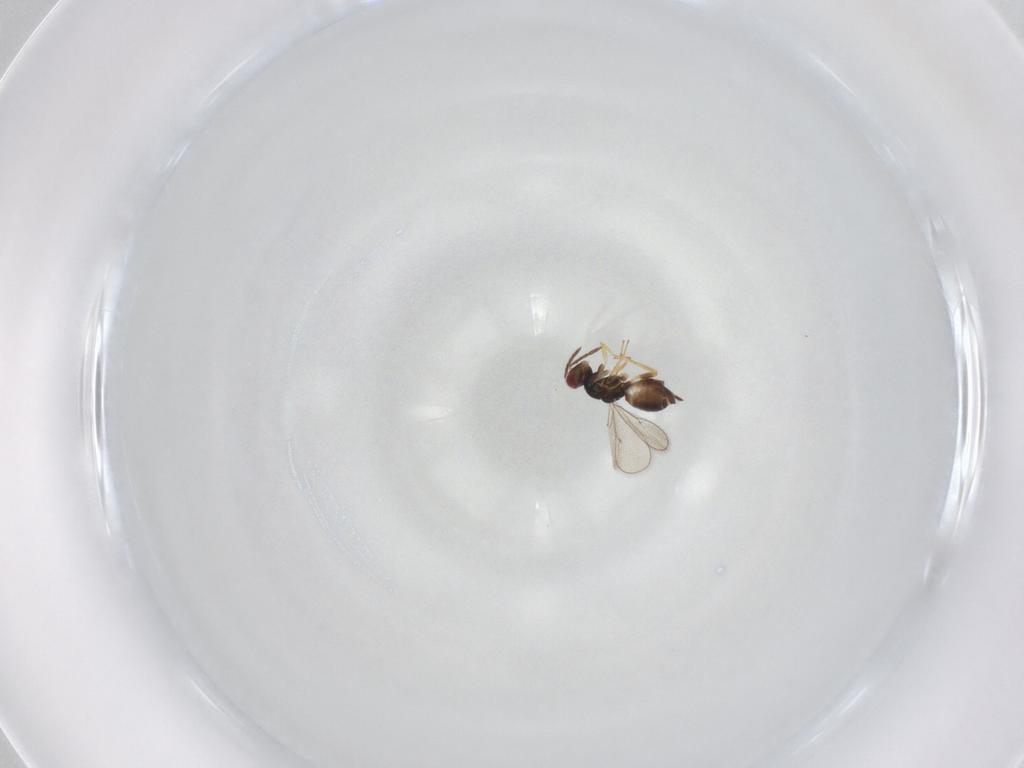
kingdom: Animalia
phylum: Arthropoda
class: Insecta
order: Hymenoptera
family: Eulophidae
